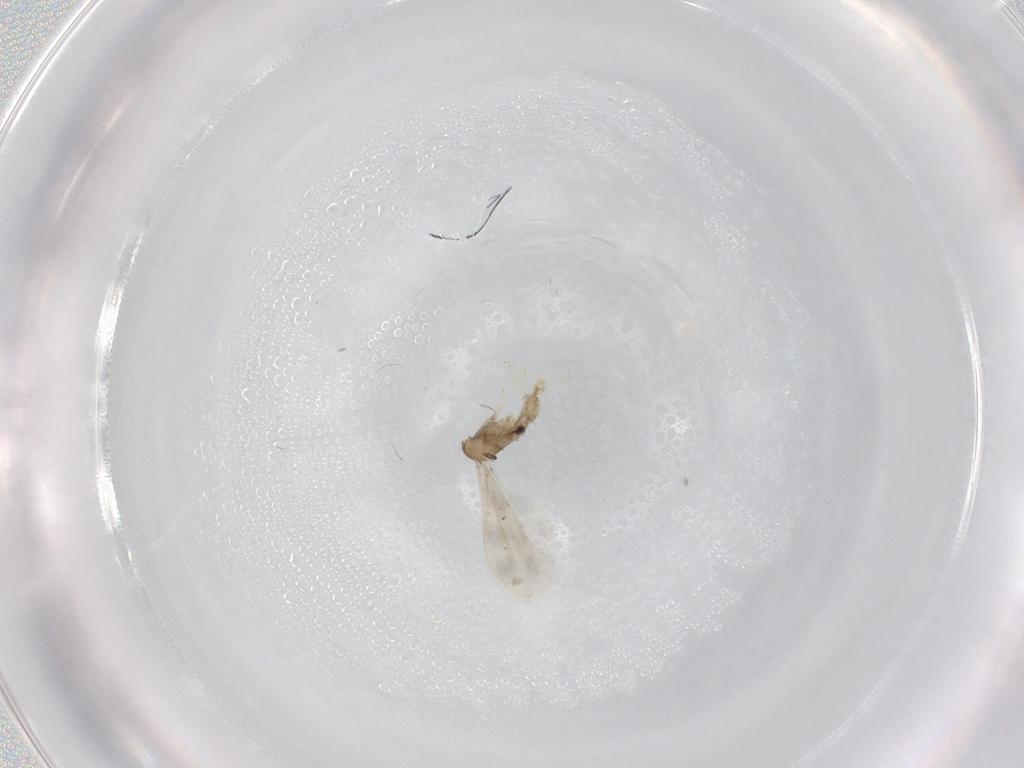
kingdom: Animalia
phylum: Arthropoda
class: Insecta
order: Diptera
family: Cecidomyiidae
